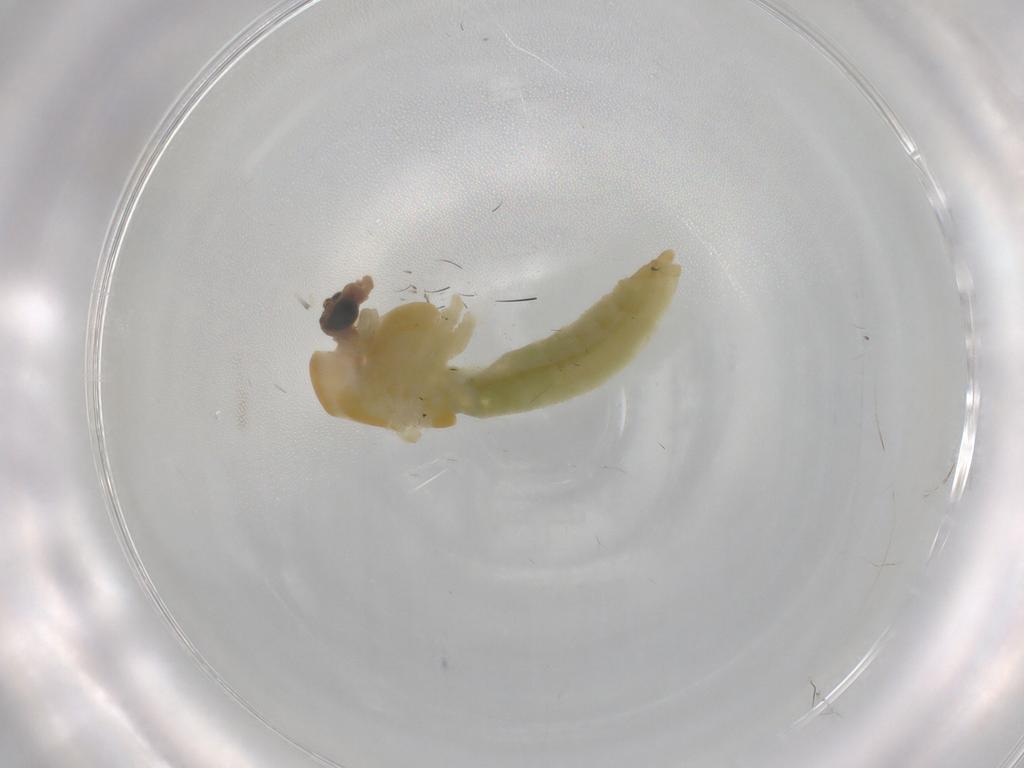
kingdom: Animalia
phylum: Arthropoda
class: Insecta
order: Diptera
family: Chironomidae
